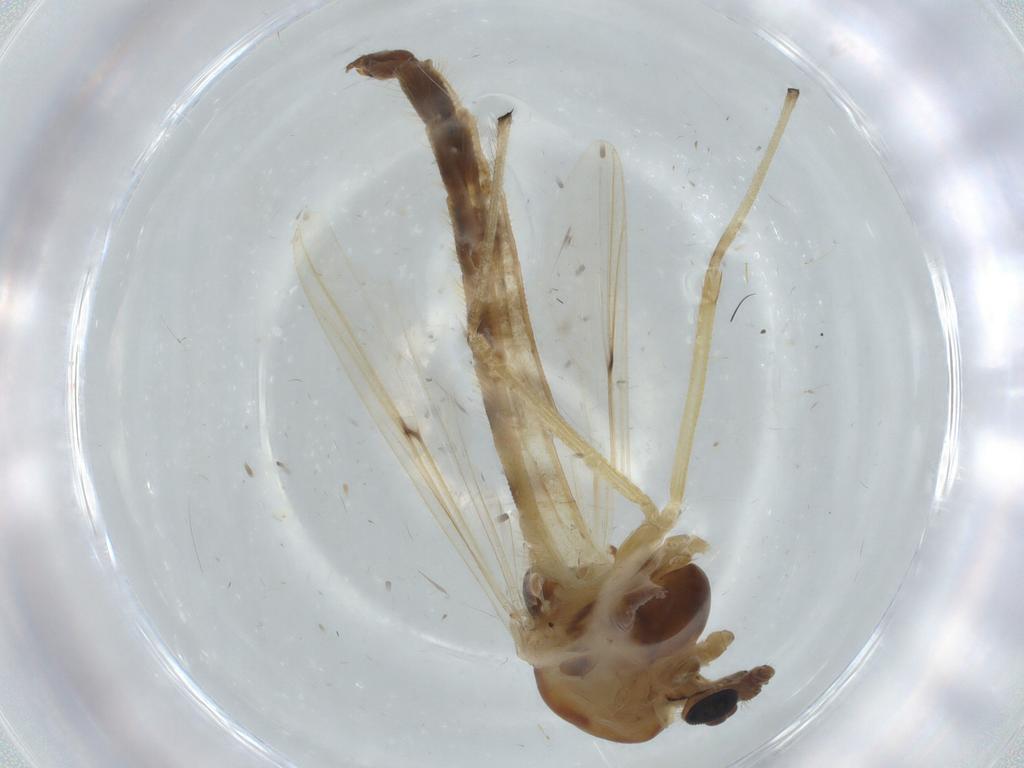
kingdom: Animalia
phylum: Arthropoda
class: Insecta
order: Diptera
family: Chironomidae
